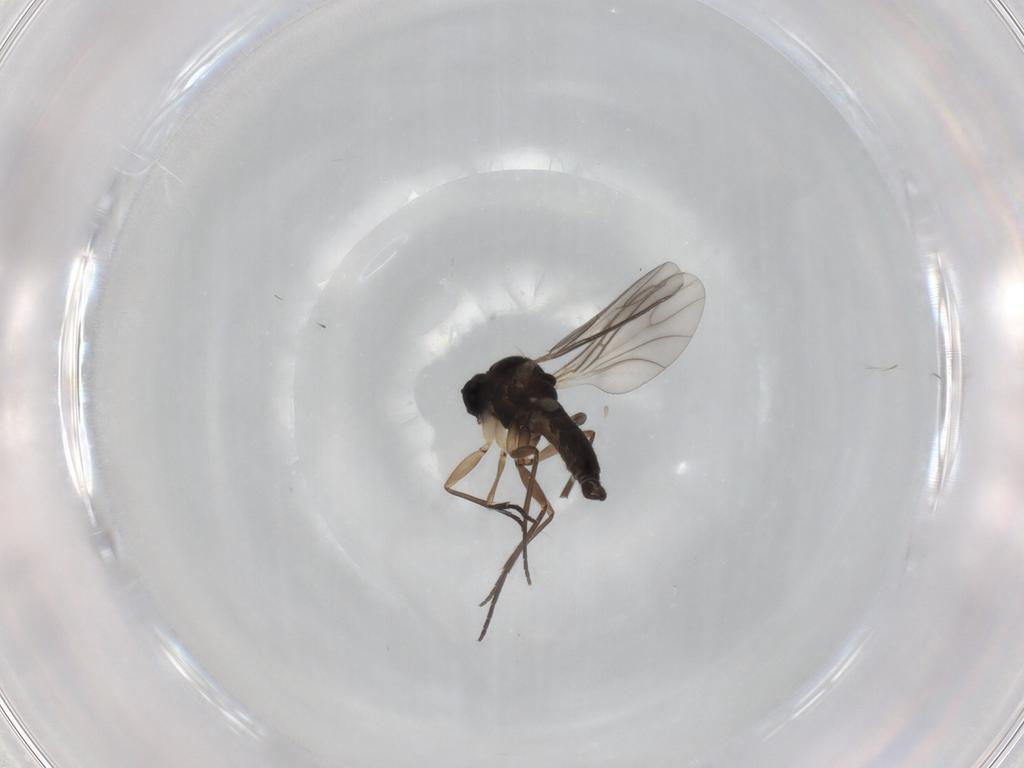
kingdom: Animalia
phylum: Arthropoda
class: Insecta
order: Diptera
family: Sciaridae
